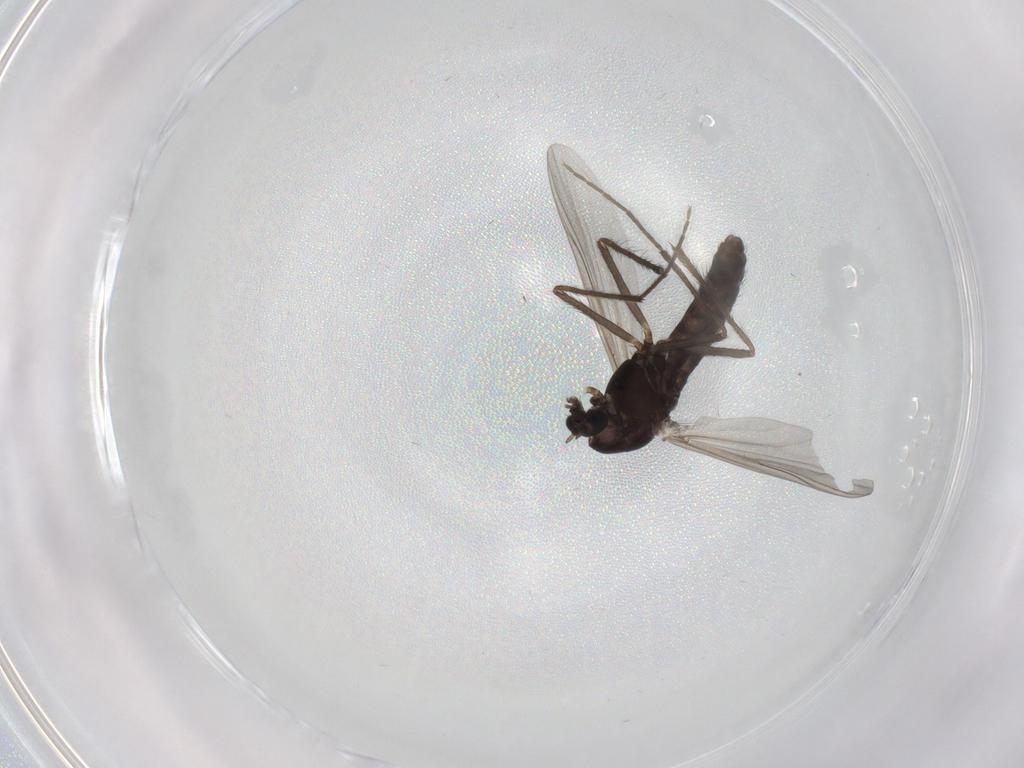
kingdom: Animalia
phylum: Arthropoda
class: Insecta
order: Diptera
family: Chironomidae
